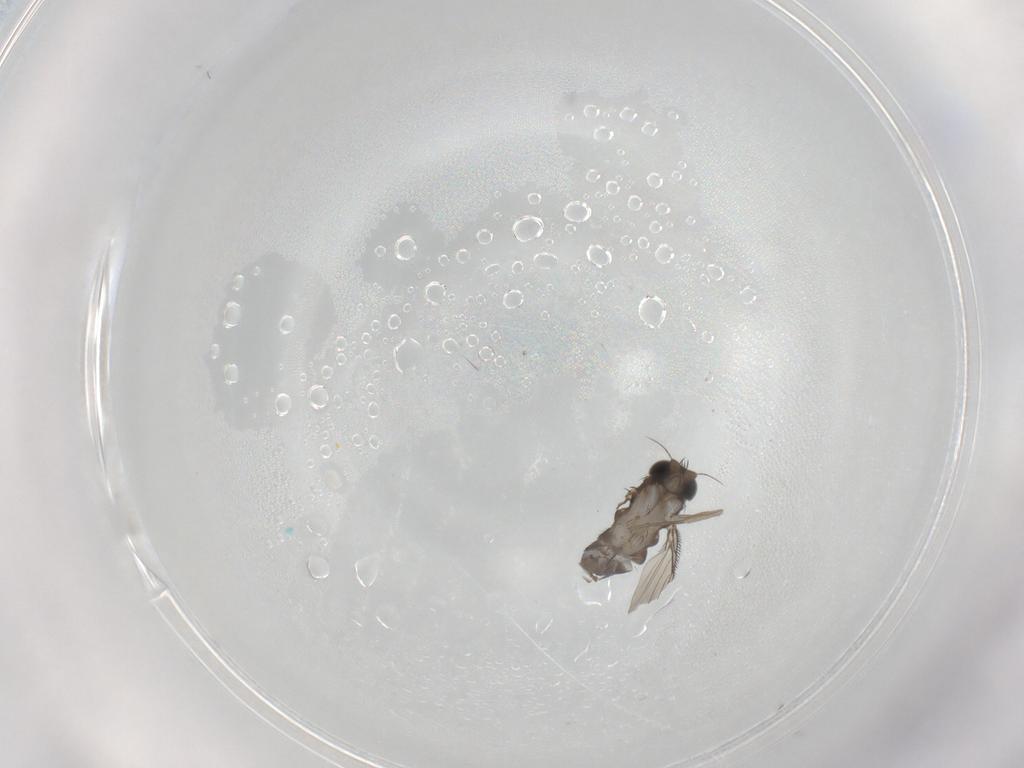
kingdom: Animalia
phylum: Arthropoda
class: Insecta
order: Diptera
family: Phoridae
